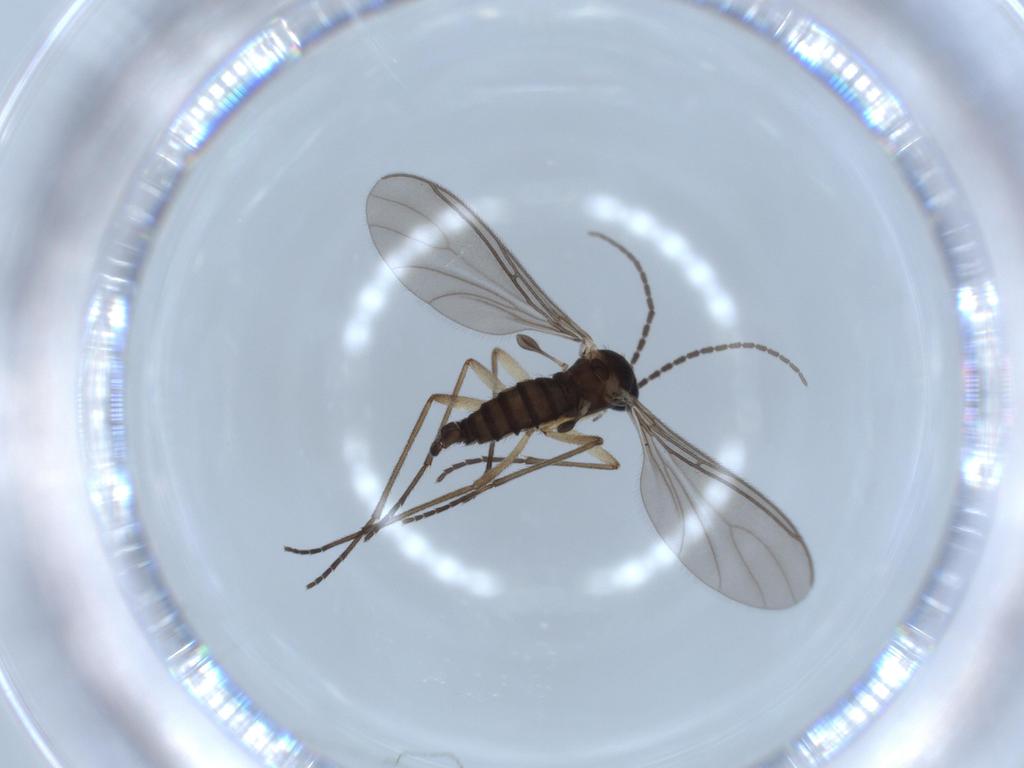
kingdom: Animalia
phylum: Arthropoda
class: Insecta
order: Diptera
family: Sciaridae
